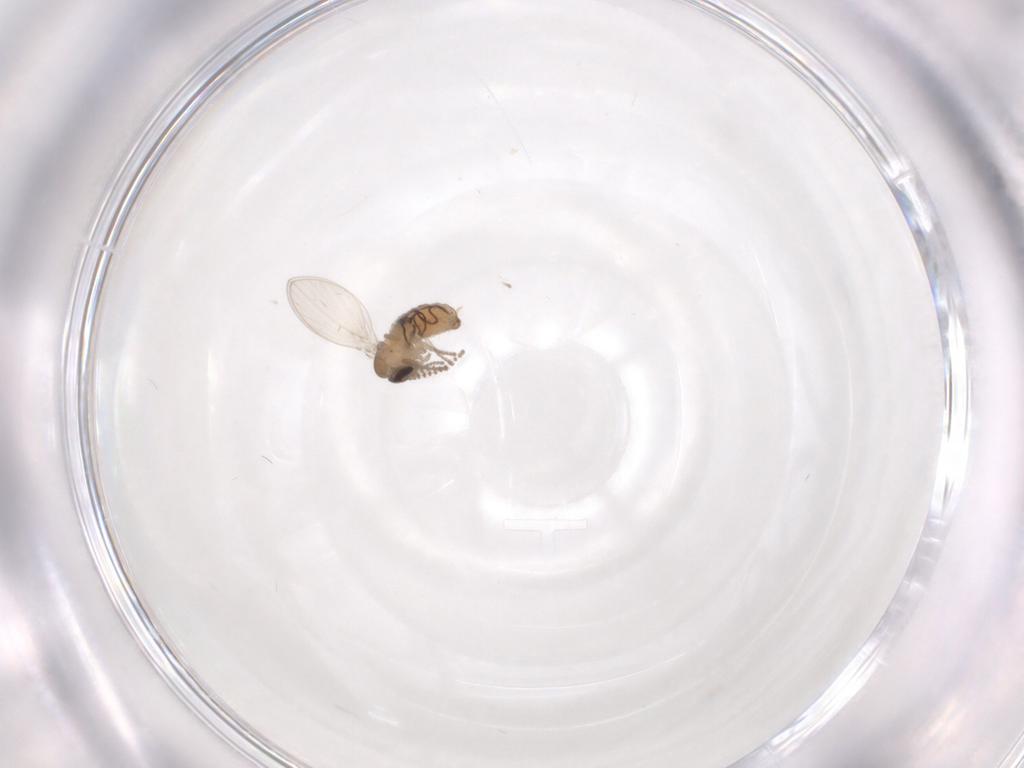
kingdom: Animalia
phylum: Arthropoda
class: Insecta
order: Diptera
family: Psychodidae
